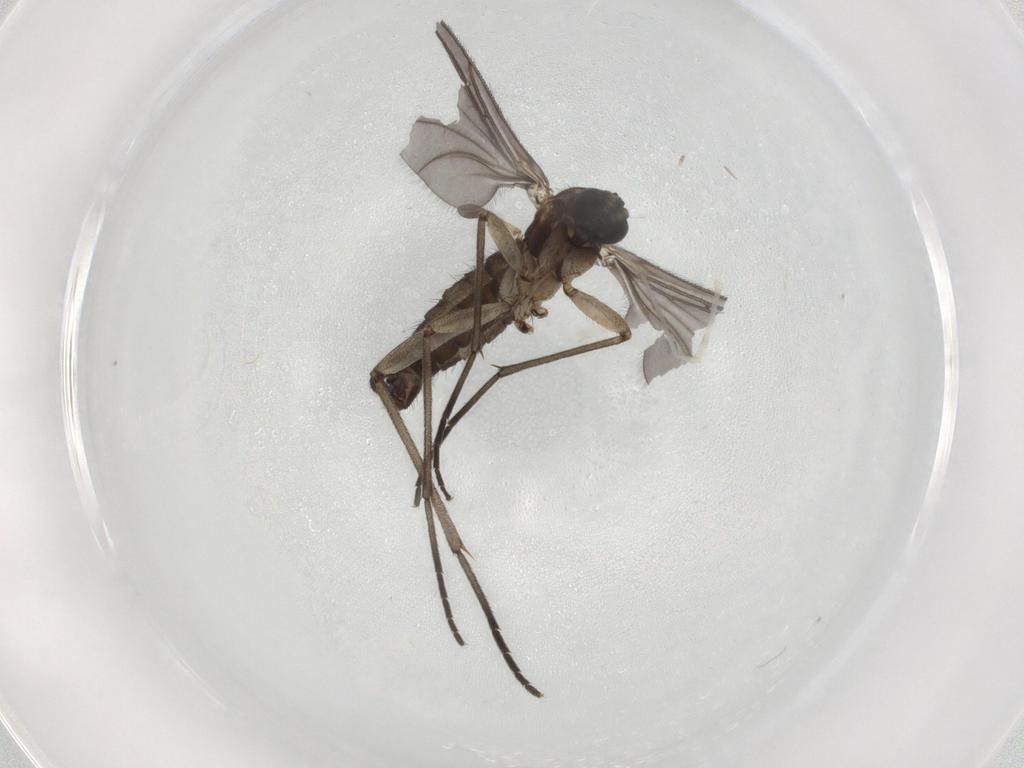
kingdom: Animalia
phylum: Arthropoda
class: Insecta
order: Diptera
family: Sciaridae
